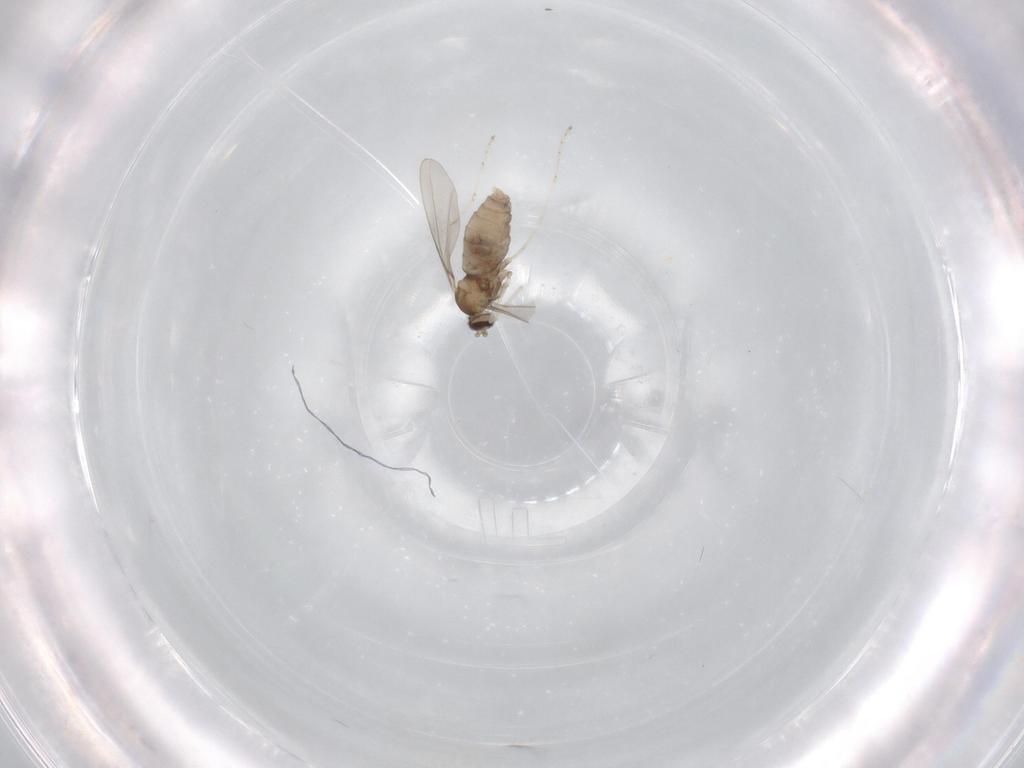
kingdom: Animalia
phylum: Arthropoda
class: Insecta
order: Diptera
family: Cecidomyiidae
